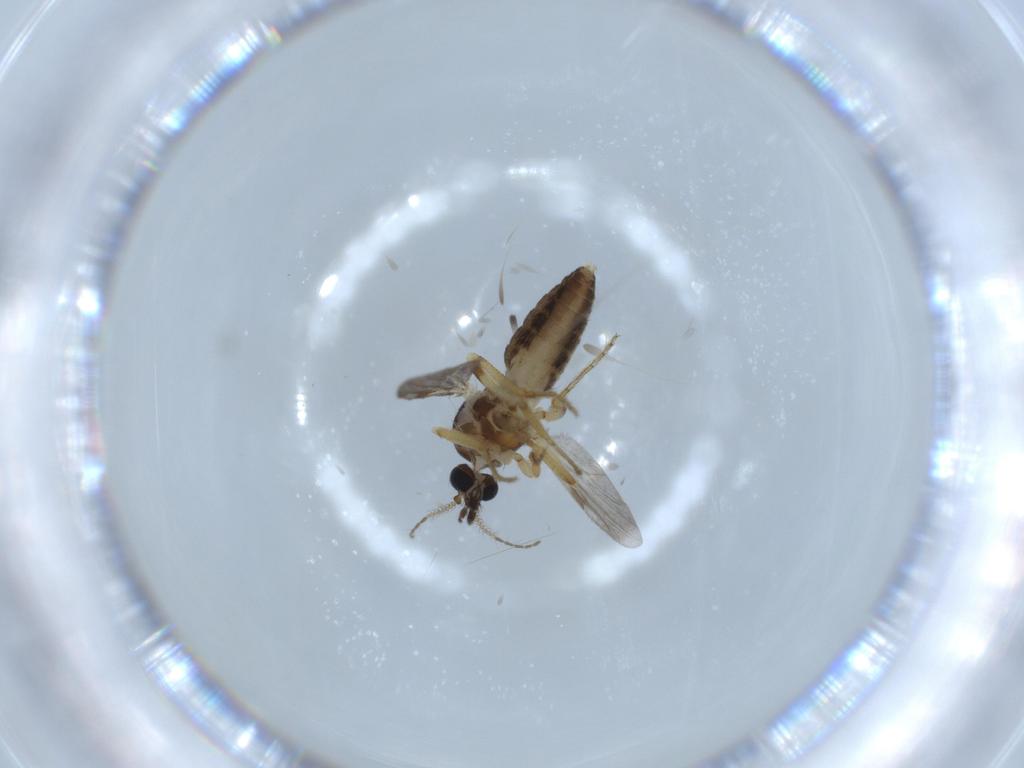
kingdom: Animalia
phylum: Arthropoda
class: Insecta
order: Diptera
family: Ceratopogonidae
